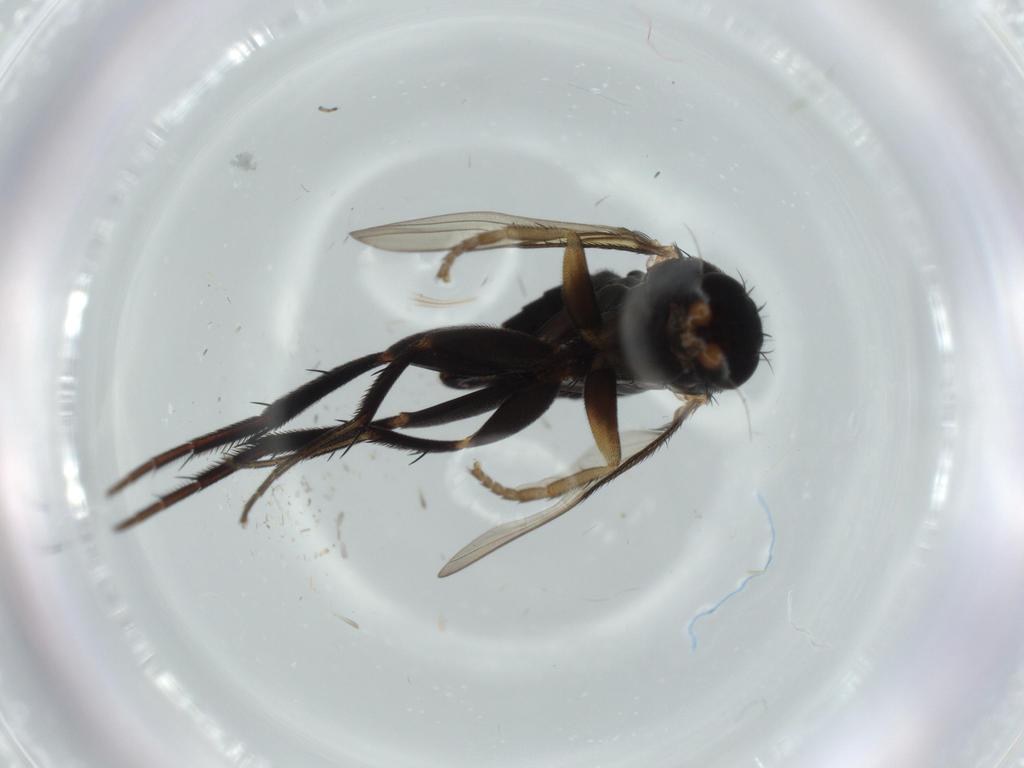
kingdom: Animalia
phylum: Arthropoda
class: Insecta
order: Diptera
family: Phoridae
